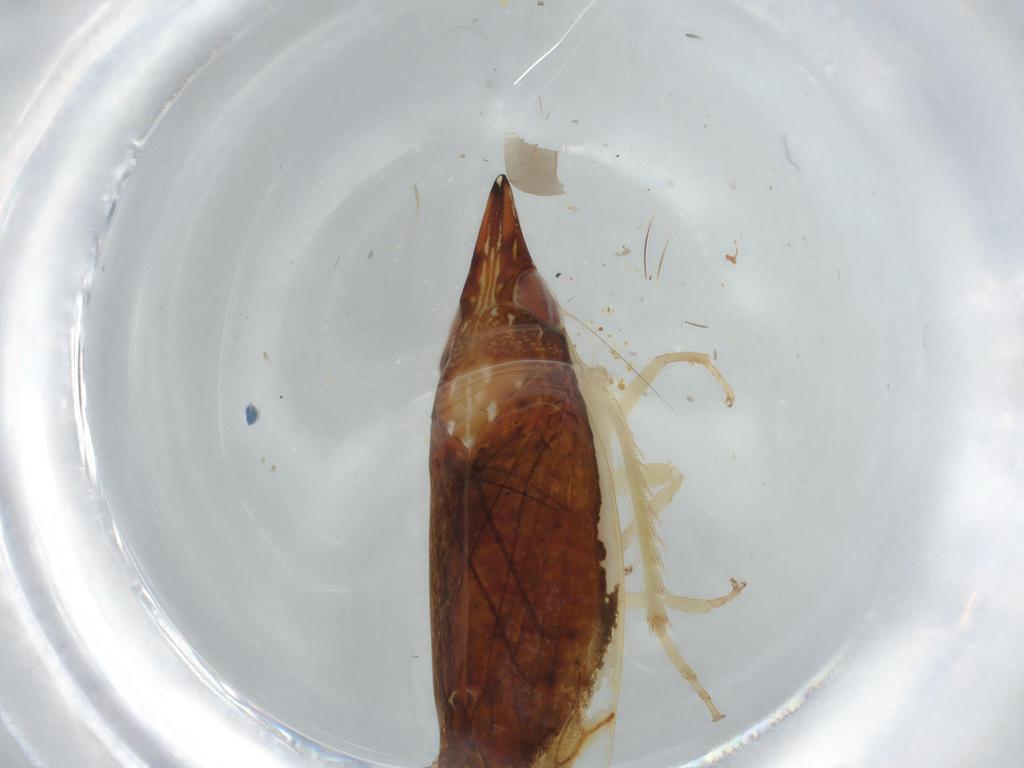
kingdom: Animalia
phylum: Arthropoda
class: Insecta
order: Hemiptera
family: Cicadellidae
